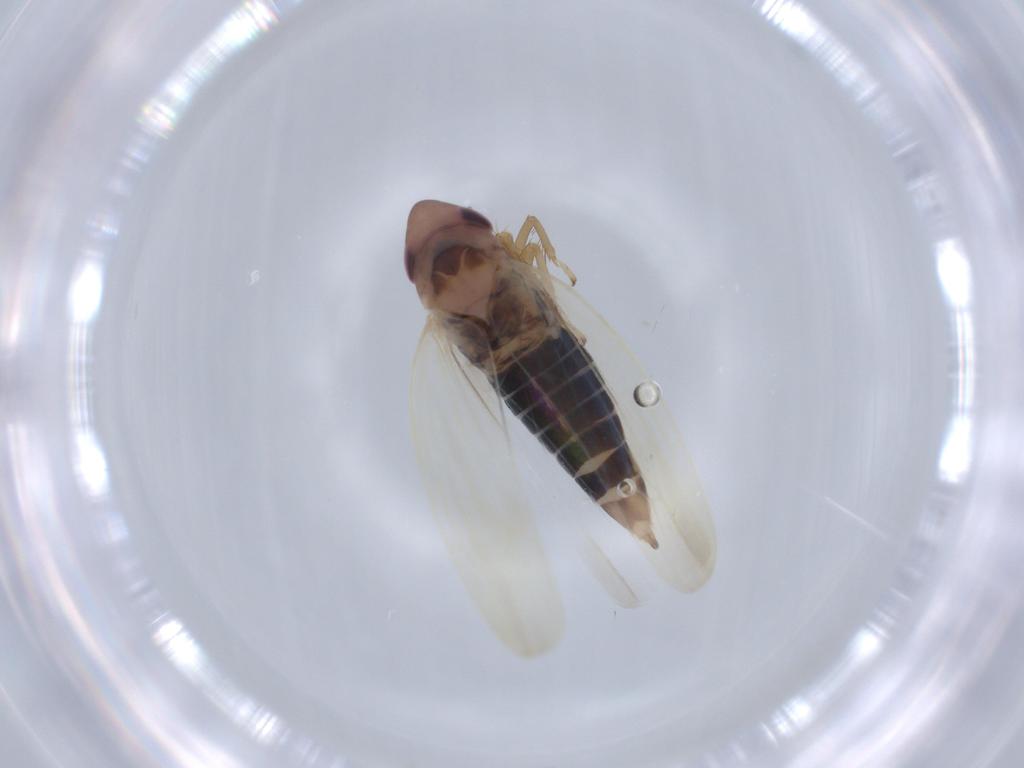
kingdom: Animalia
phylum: Arthropoda
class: Insecta
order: Hemiptera
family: Cicadellidae
